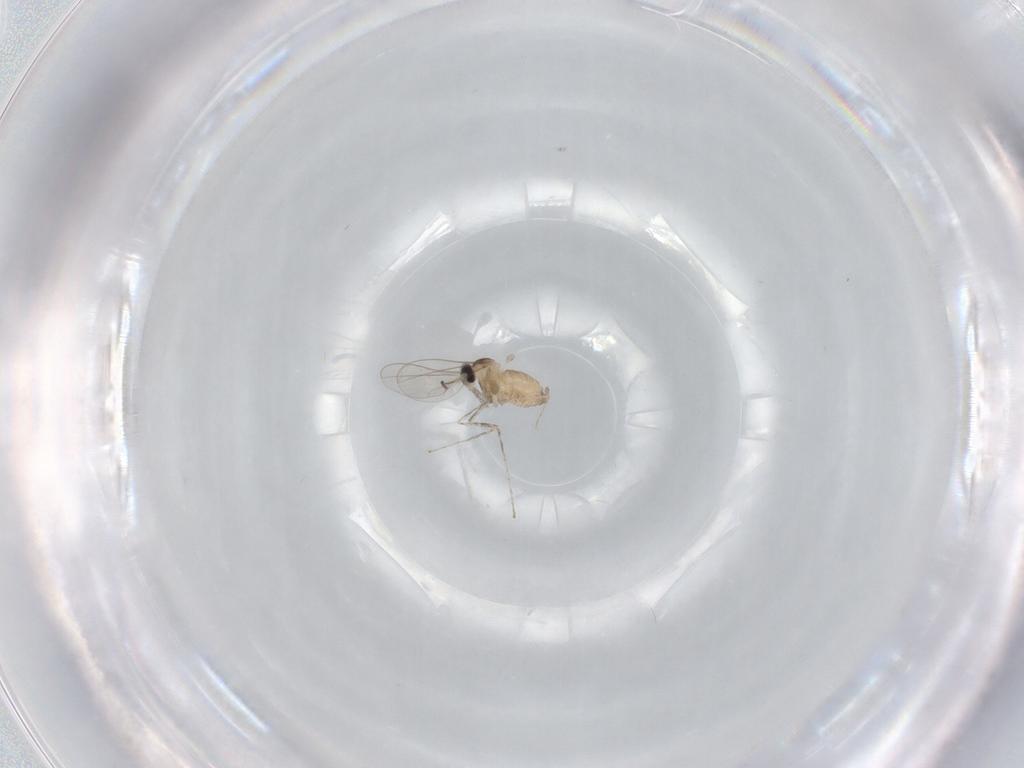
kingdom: Animalia
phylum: Arthropoda
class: Insecta
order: Diptera
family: Cecidomyiidae
